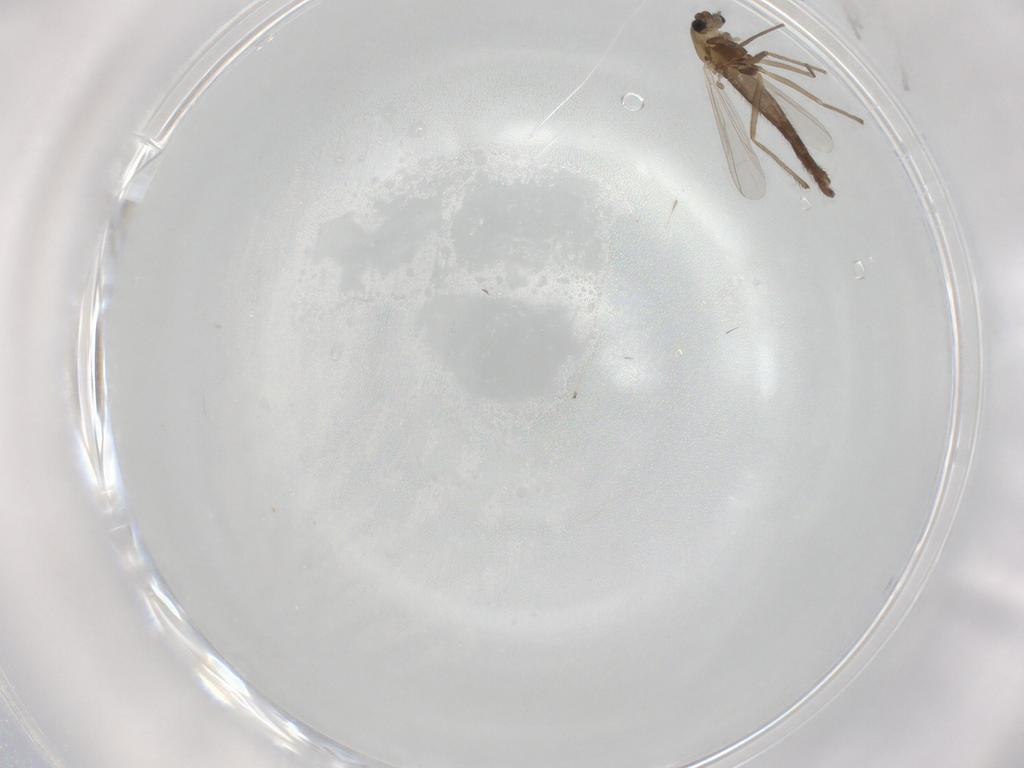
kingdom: Animalia
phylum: Arthropoda
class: Insecta
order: Diptera
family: Chironomidae
